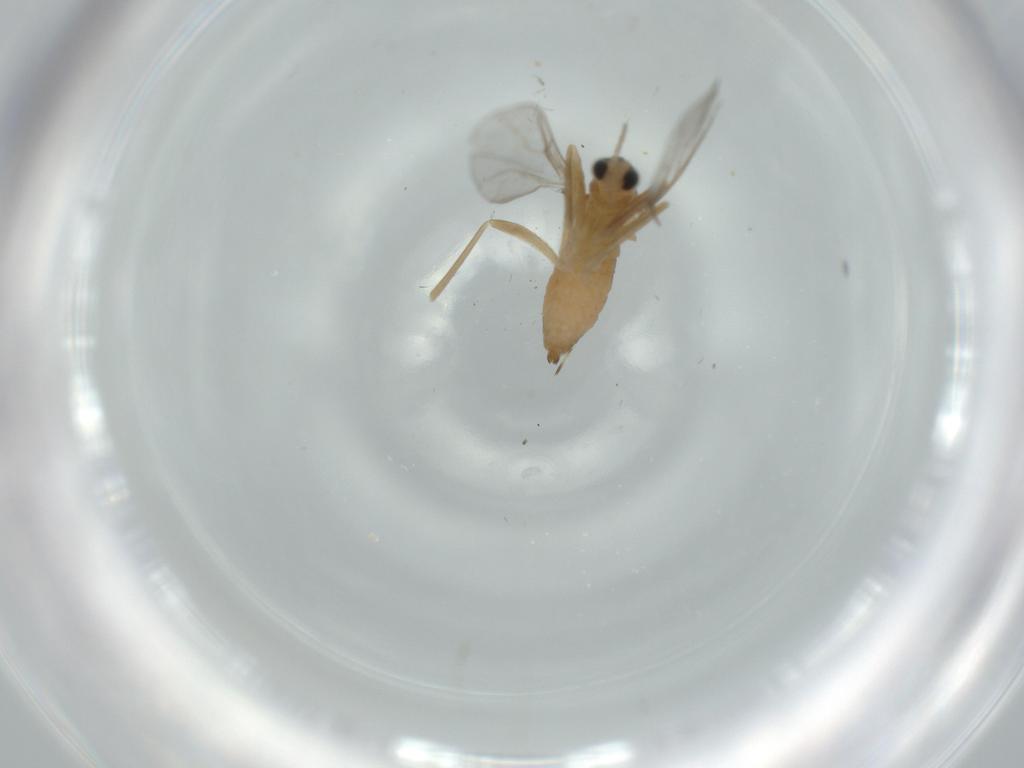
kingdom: Animalia
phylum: Arthropoda
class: Insecta
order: Diptera
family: Cecidomyiidae
